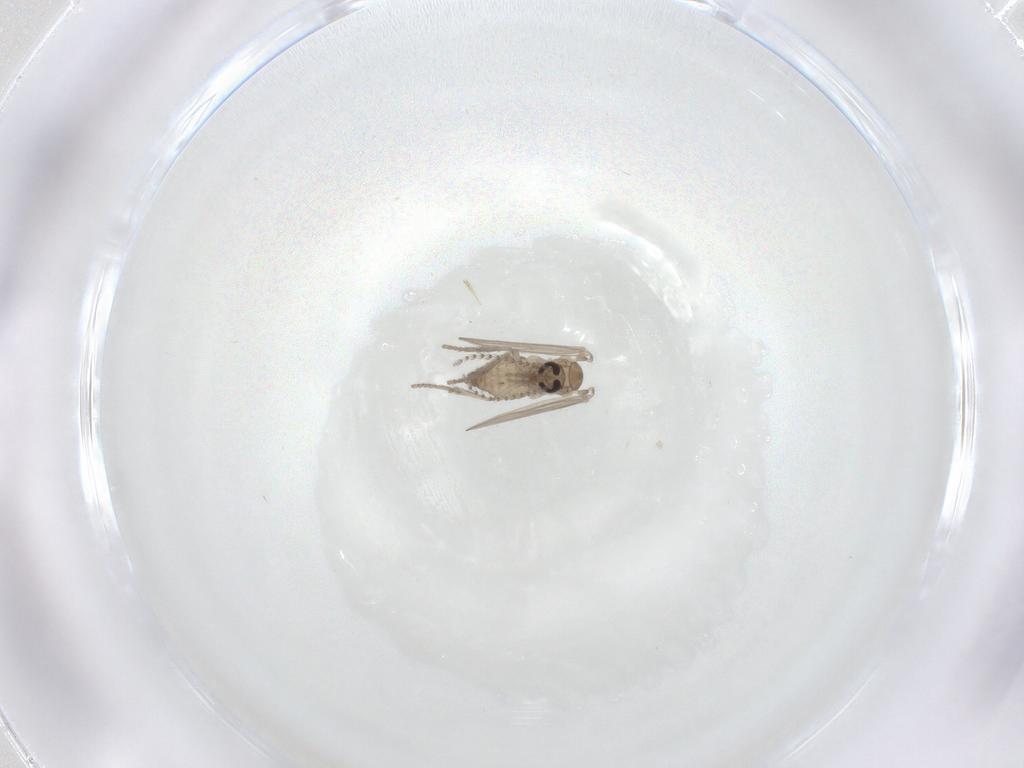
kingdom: Animalia
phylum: Arthropoda
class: Insecta
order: Diptera
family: Psychodidae
